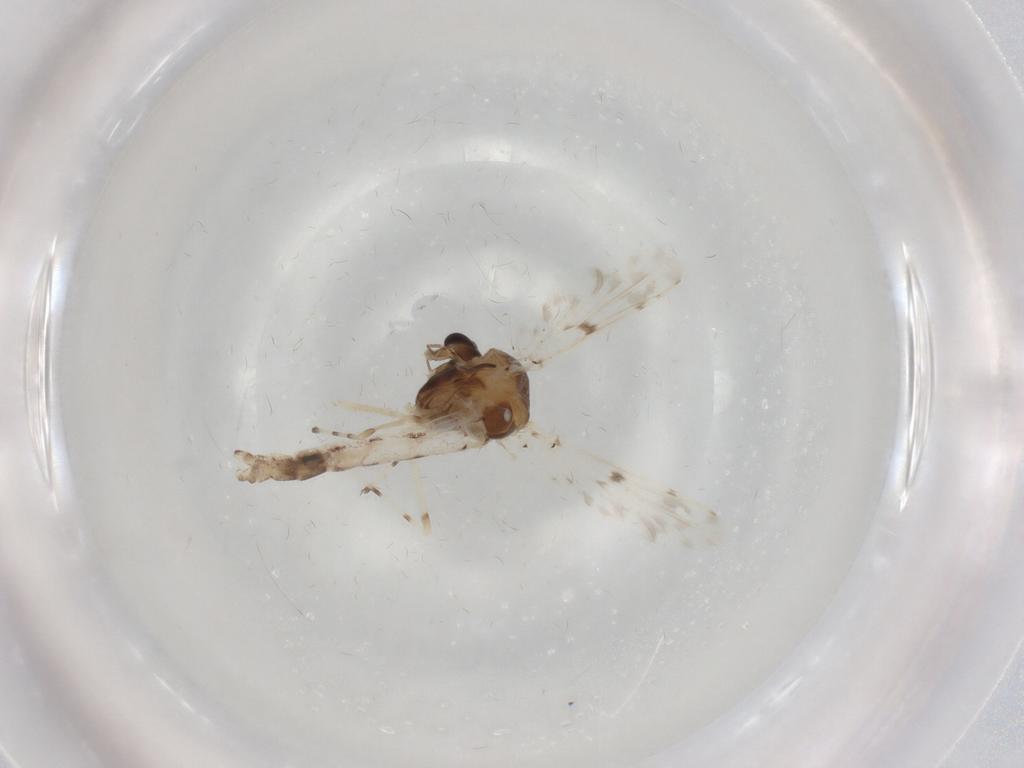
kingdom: Animalia
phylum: Arthropoda
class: Insecta
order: Diptera
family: Chironomidae
